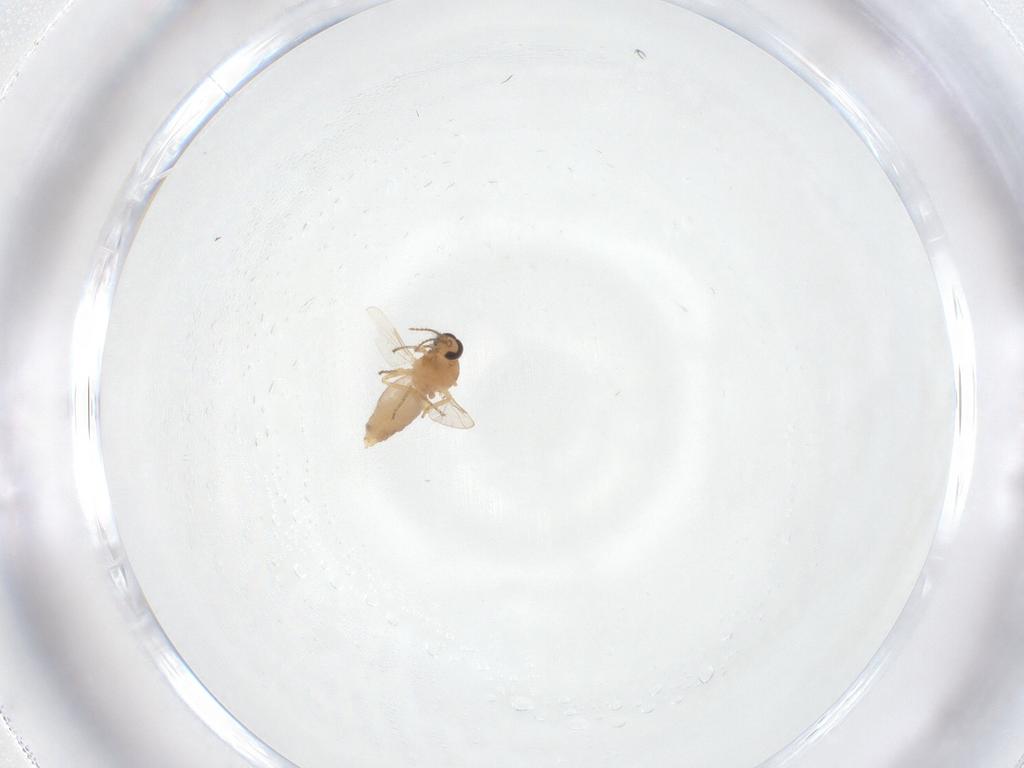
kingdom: Animalia
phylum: Arthropoda
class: Insecta
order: Diptera
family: Ceratopogonidae
